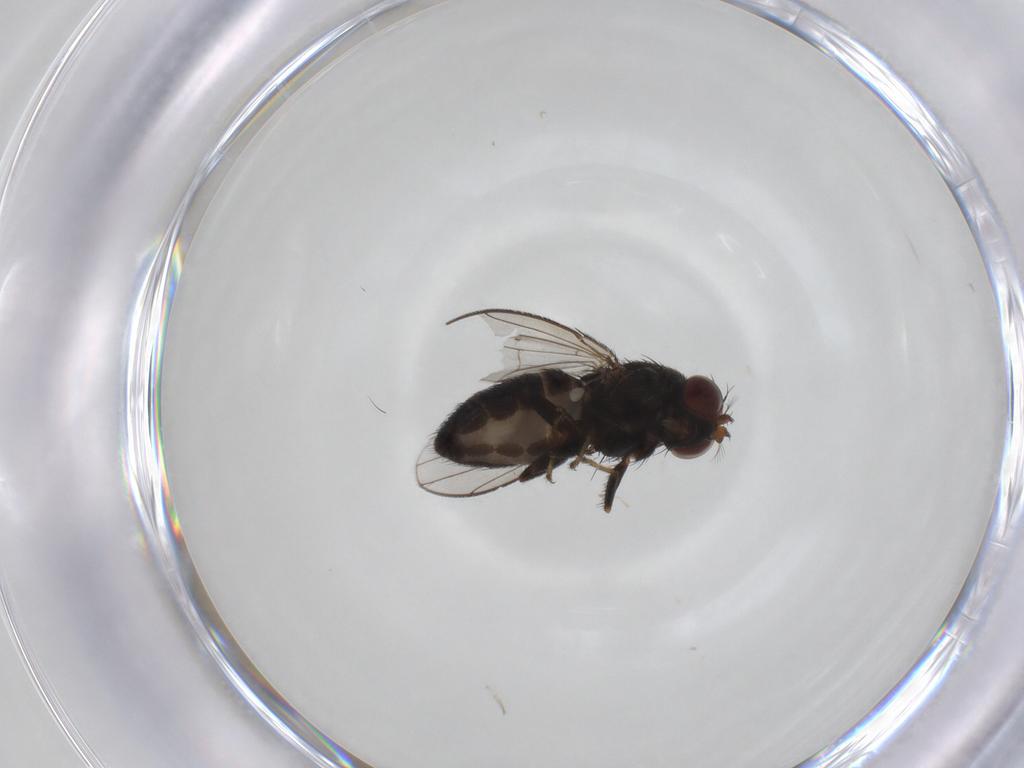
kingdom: Animalia
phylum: Arthropoda
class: Insecta
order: Diptera
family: Ephydridae
